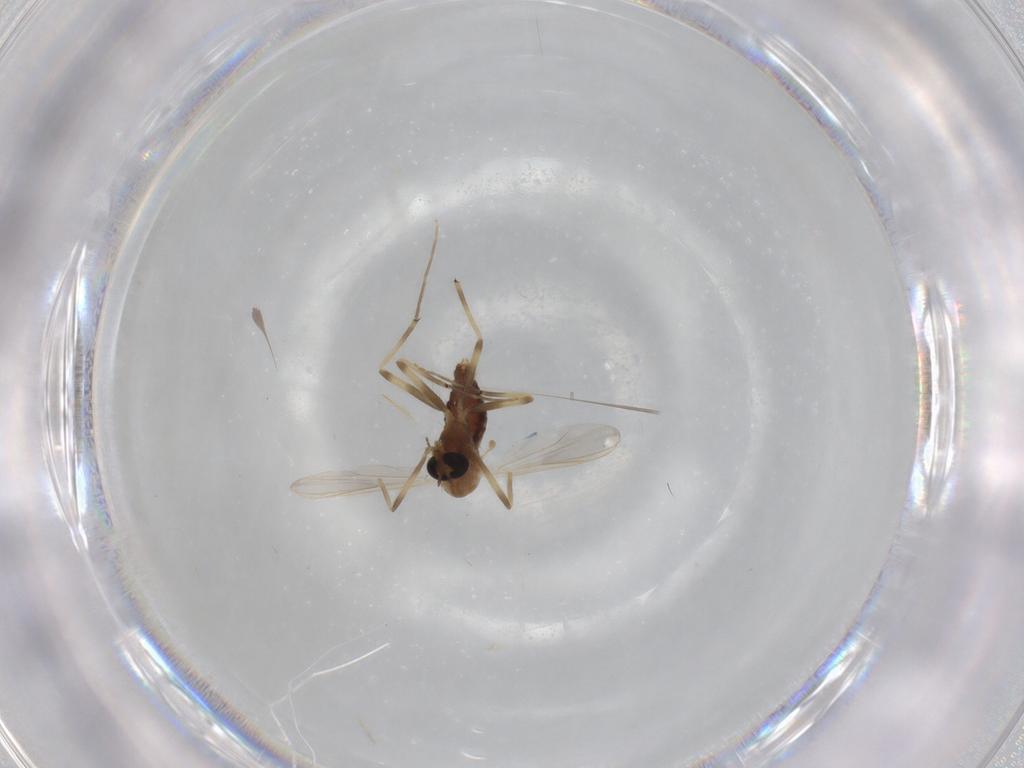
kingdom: Animalia
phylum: Arthropoda
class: Insecta
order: Diptera
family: Chironomidae
